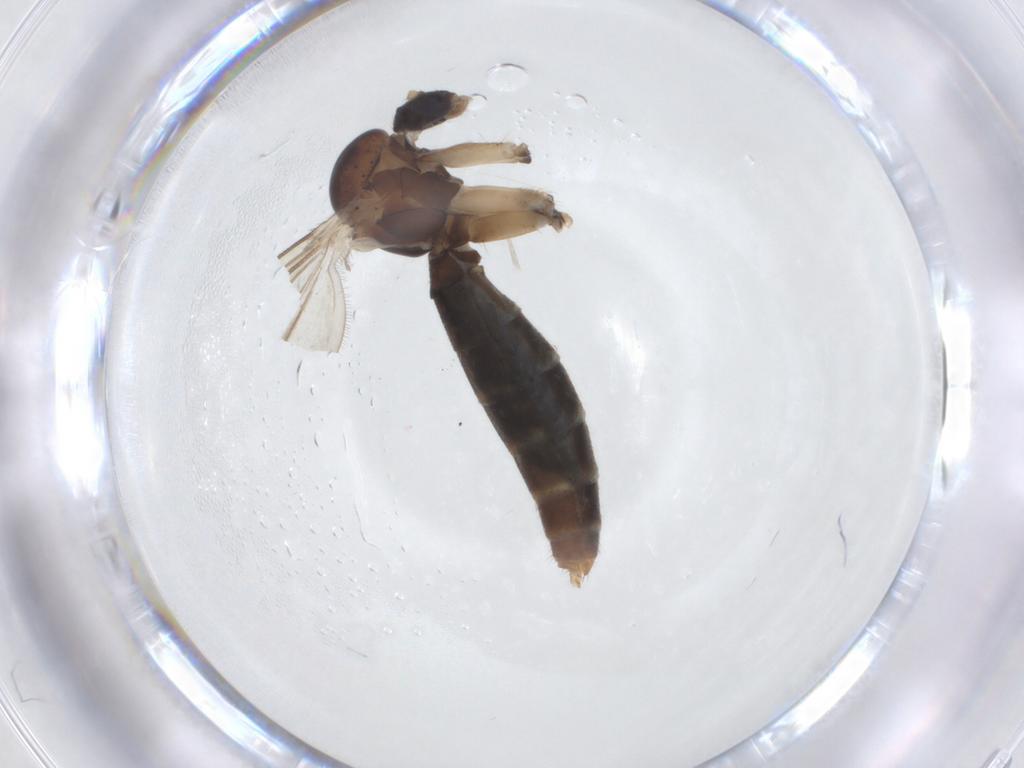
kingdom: Animalia
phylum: Arthropoda
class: Insecta
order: Diptera
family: Mycetophilidae
